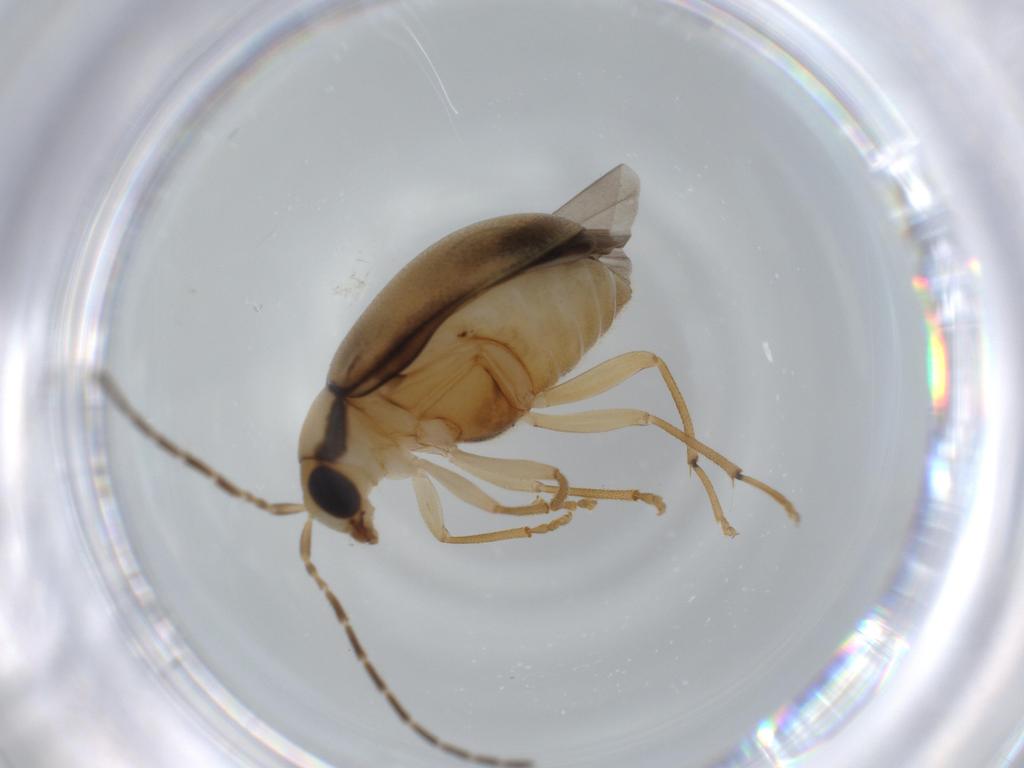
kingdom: Animalia
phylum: Arthropoda
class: Insecta
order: Coleoptera
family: Chrysomelidae
